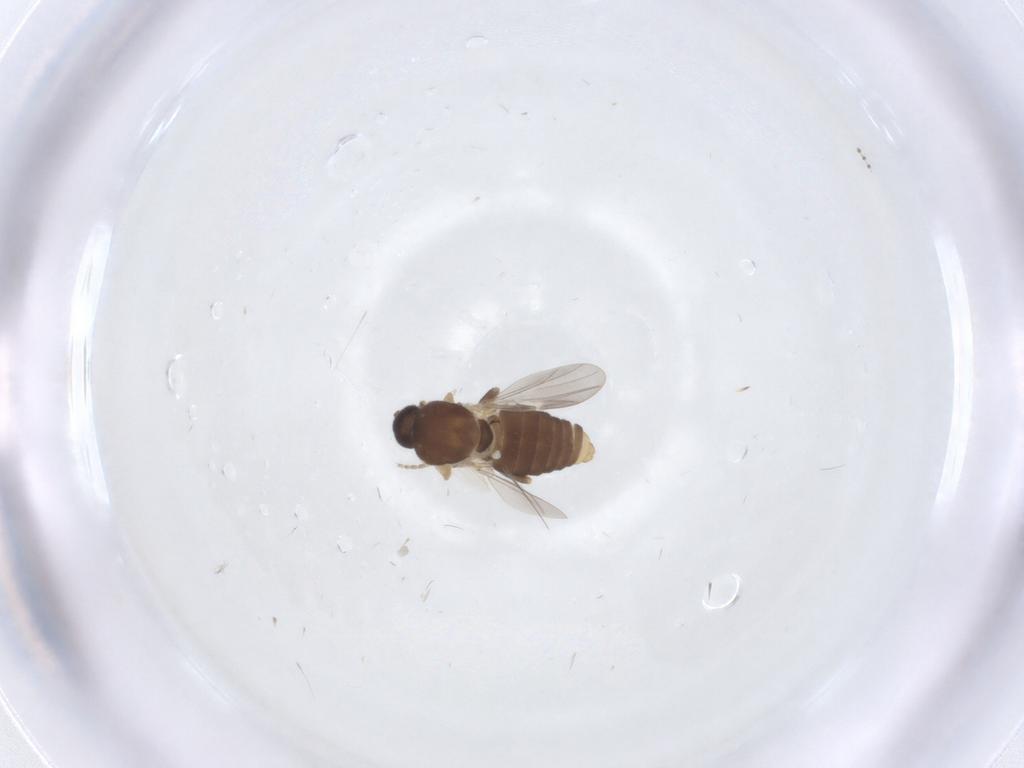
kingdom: Animalia
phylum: Arthropoda
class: Insecta
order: Diptera
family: Ceratopogonidae
